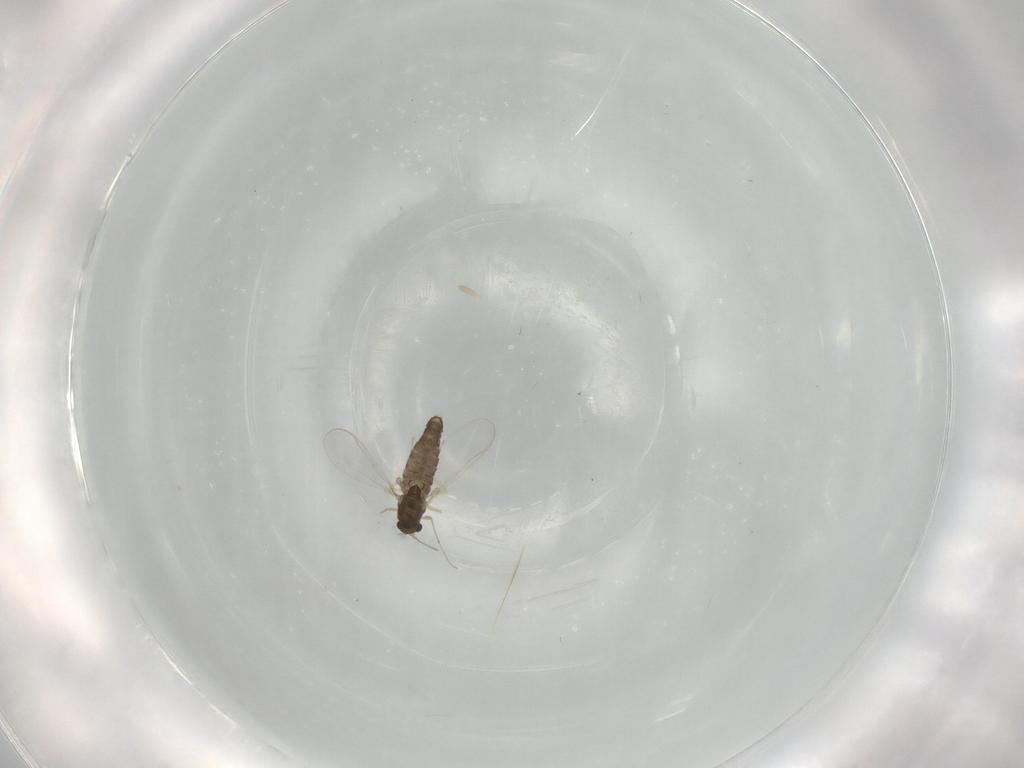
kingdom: Animalia
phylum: Arthropoda
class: Insecta
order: Diptera
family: Chironomidae
